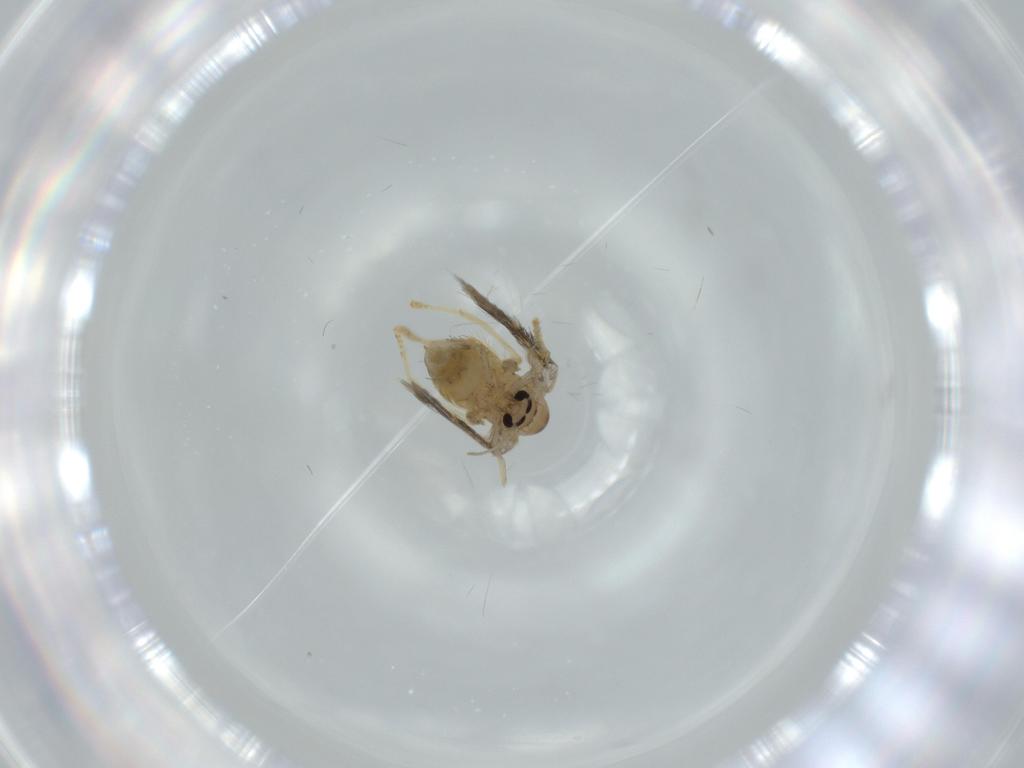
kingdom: Animalia
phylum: Arthropoda
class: Insecta
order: Diptera
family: Psychodidae
